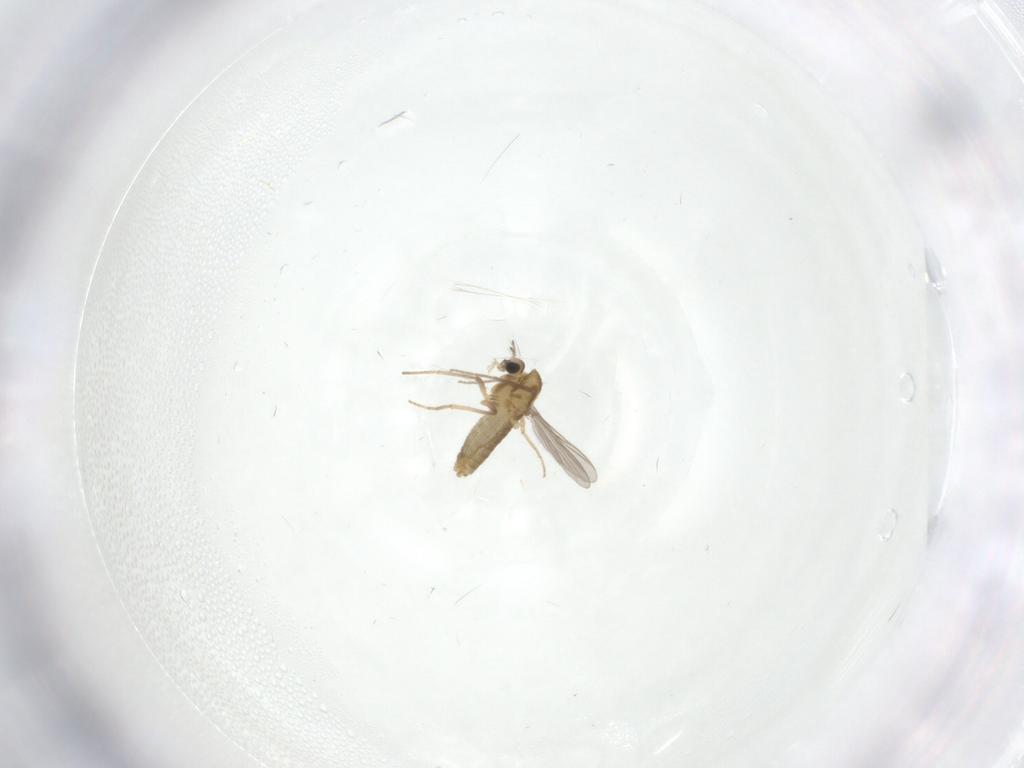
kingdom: Animalia
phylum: Arthropoda
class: Insecta
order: Diptera
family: Chironomidae
